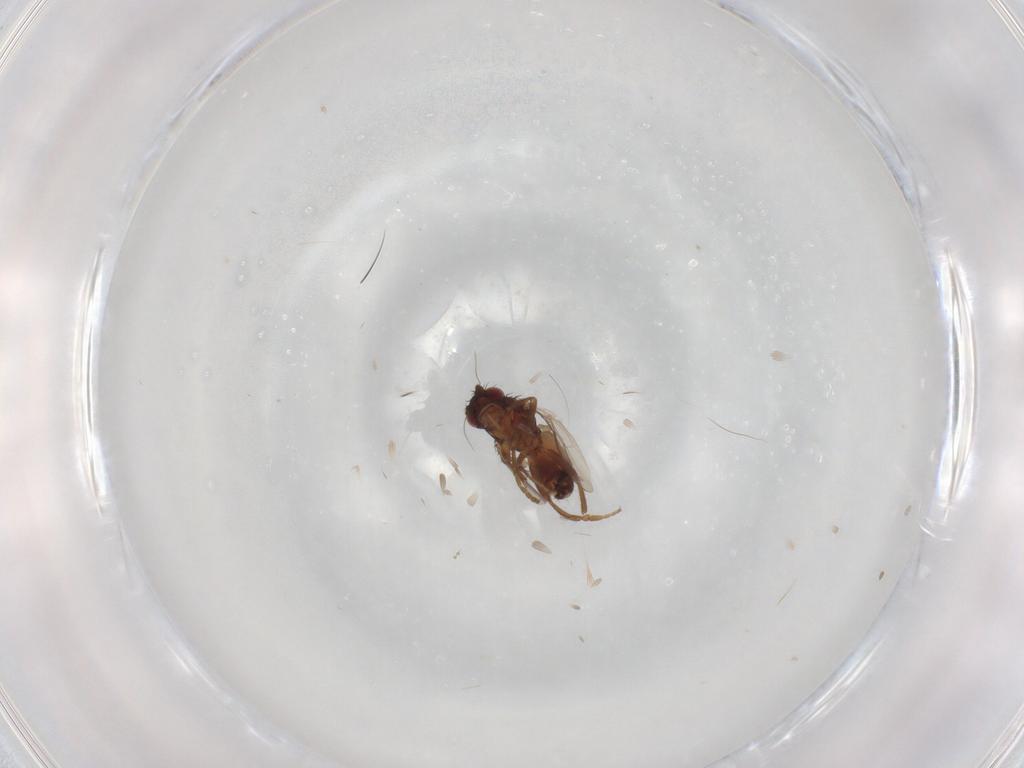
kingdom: Animalia
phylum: Arthropoda
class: Insecta
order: Diptera
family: Sphaeroceridae
